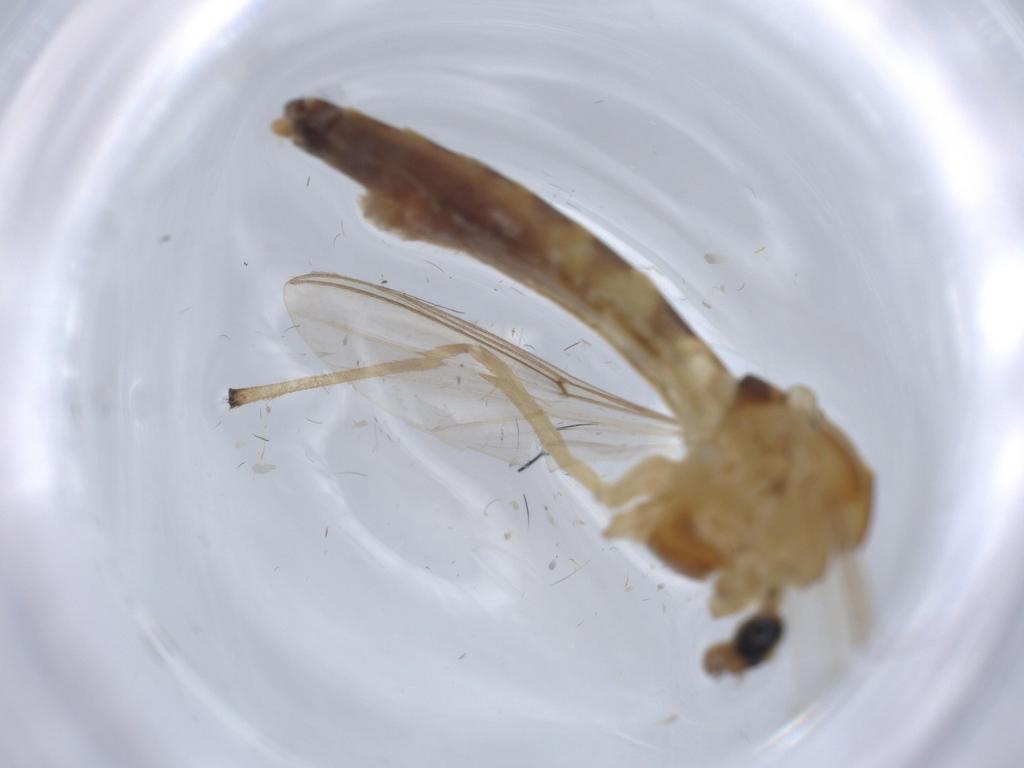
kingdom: Animalia
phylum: Arthropoda
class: Insecta
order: Diptera
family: Chironomidae
